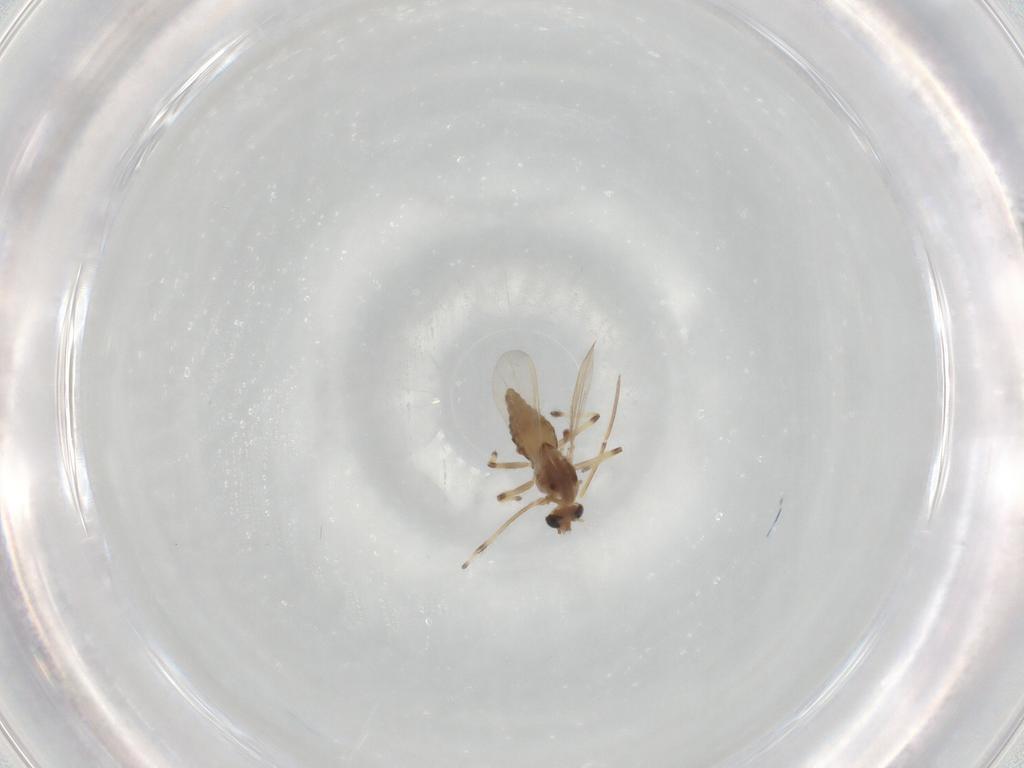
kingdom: Animalia
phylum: Arthropoda
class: Insecta
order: Diptera
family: Chironomidae
